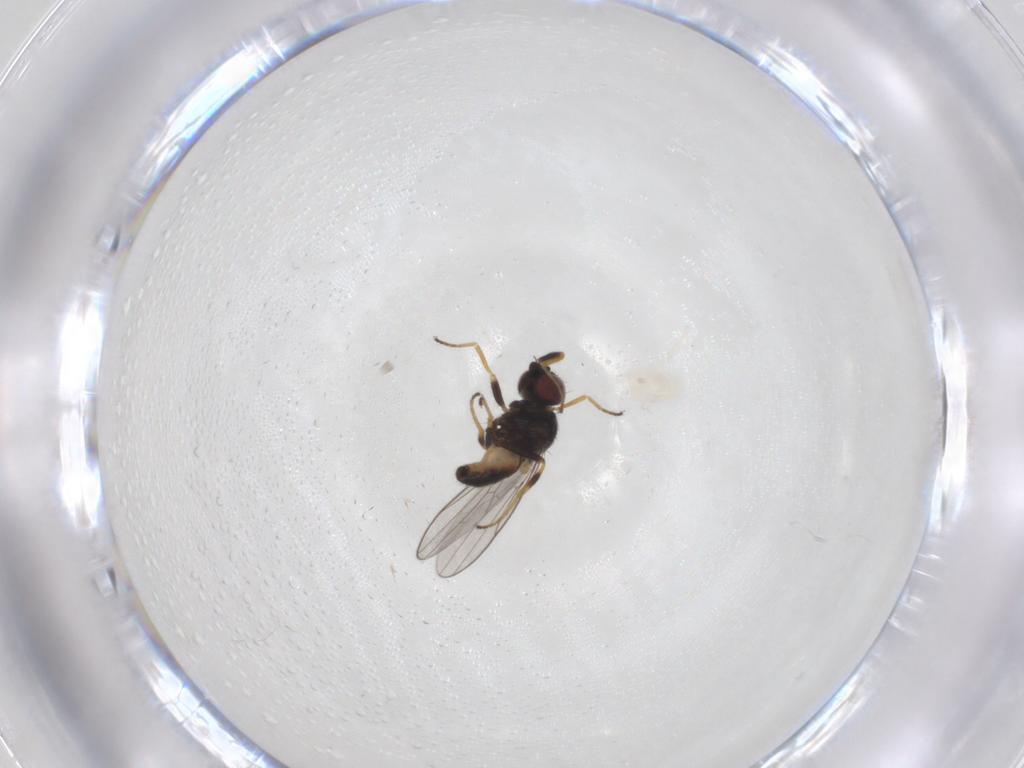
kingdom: Animalia
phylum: Arthropoda
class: Insecta
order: Diptera
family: Chloropidae
